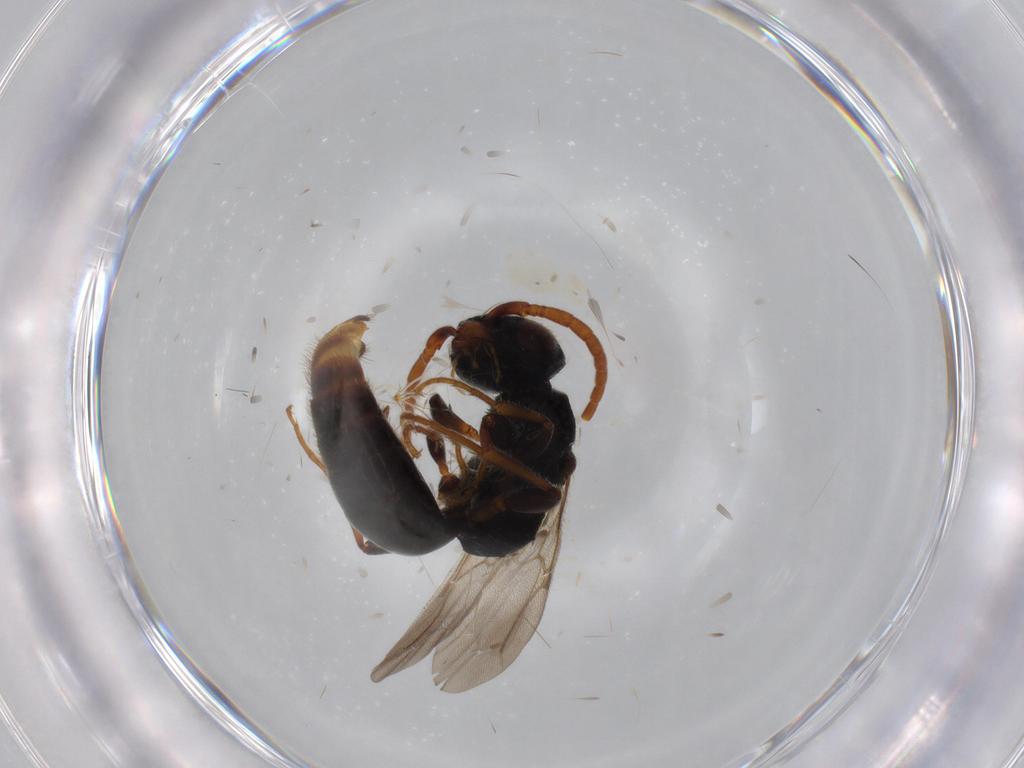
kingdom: Animalia
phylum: Arthropoda
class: Insecta
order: Hymenoptera
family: Bethylidae
